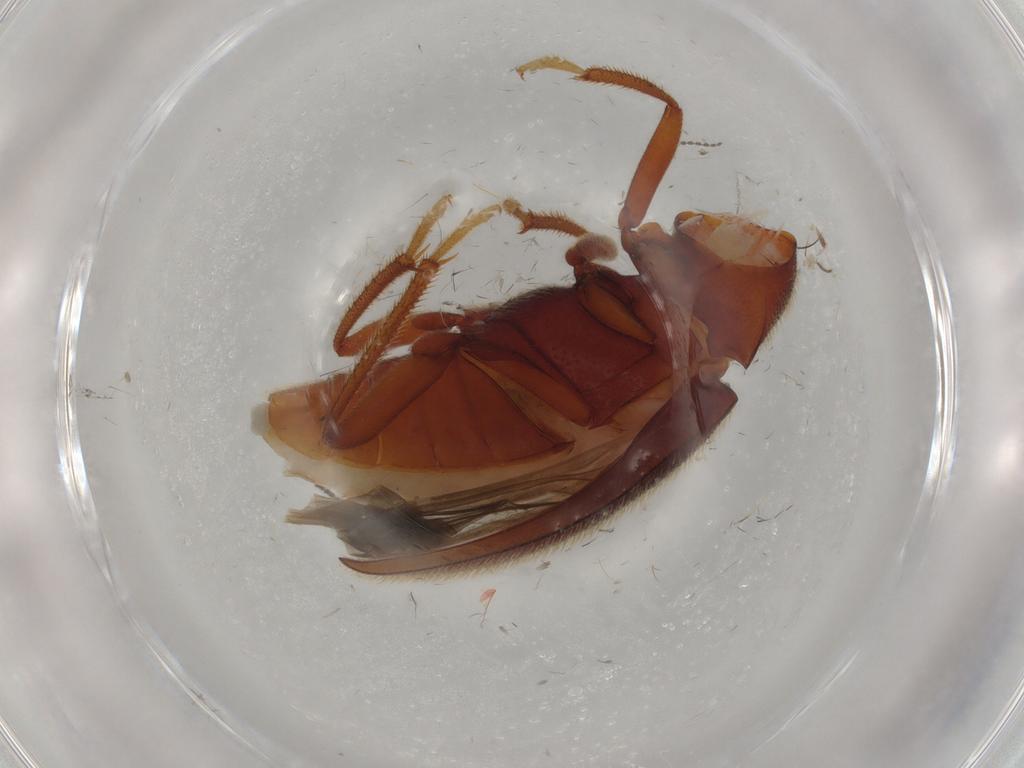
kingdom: Animalia
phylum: Arthropoda
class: Insecta
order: Coleoptera
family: Ptilodactylidae
